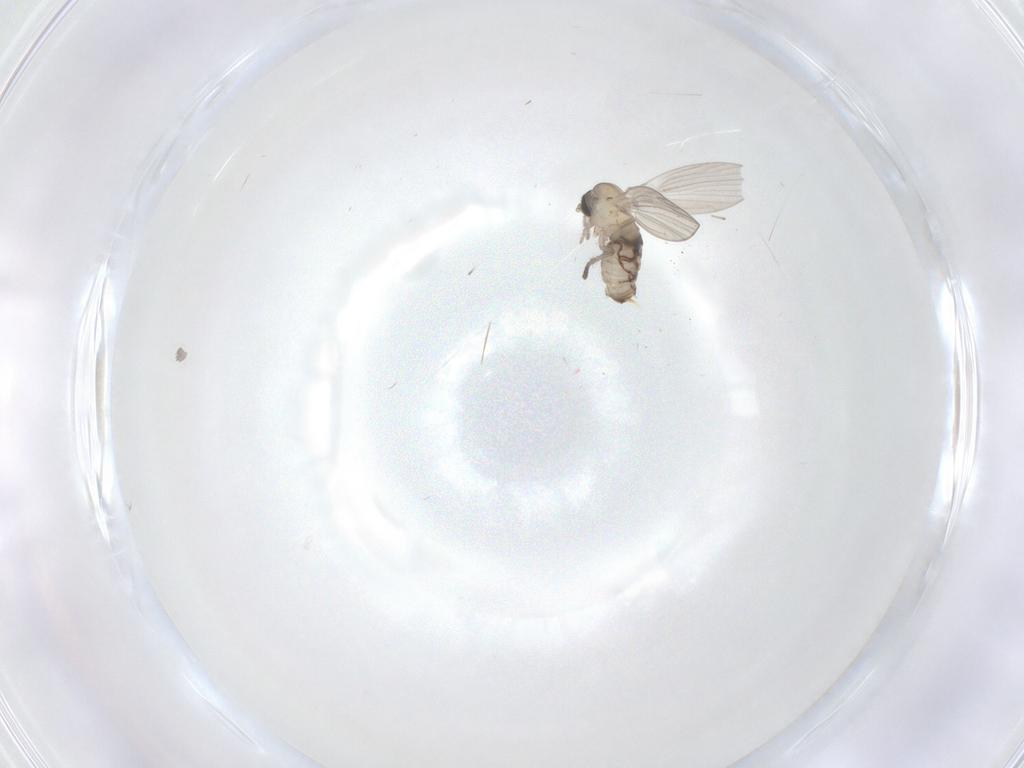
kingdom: Animalia
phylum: Arthropoda
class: Insecta
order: Diptera
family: Psychodidae
